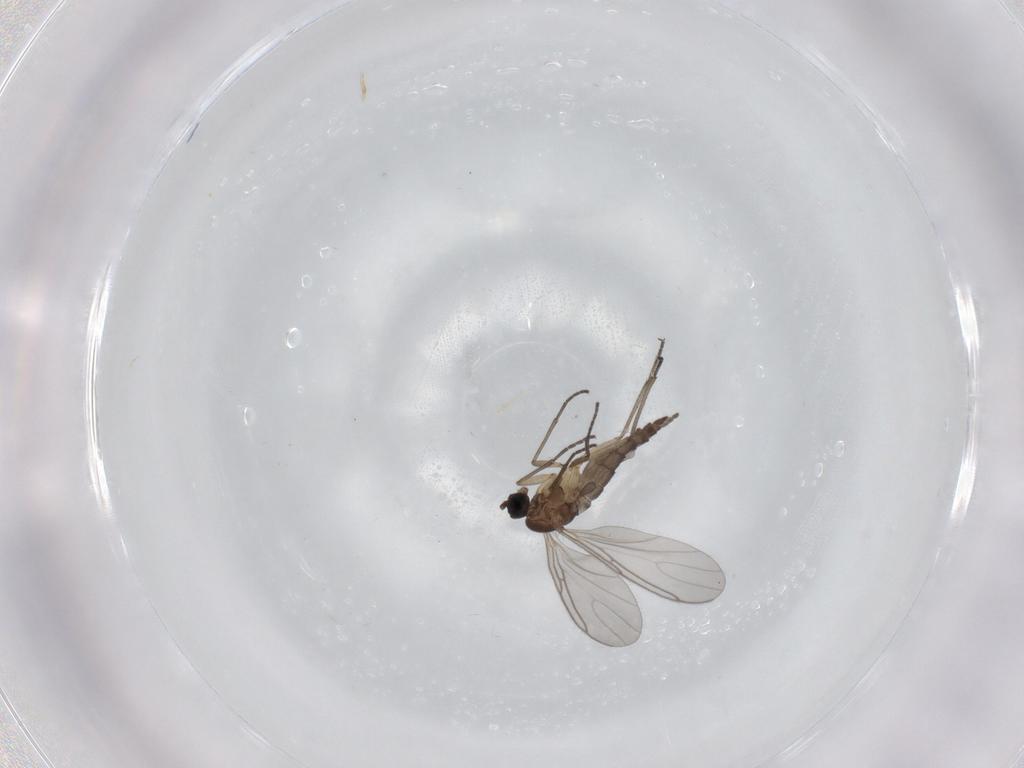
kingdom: Animalia
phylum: Arthropoda
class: Insecta
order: Diptera
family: Sciaridae
